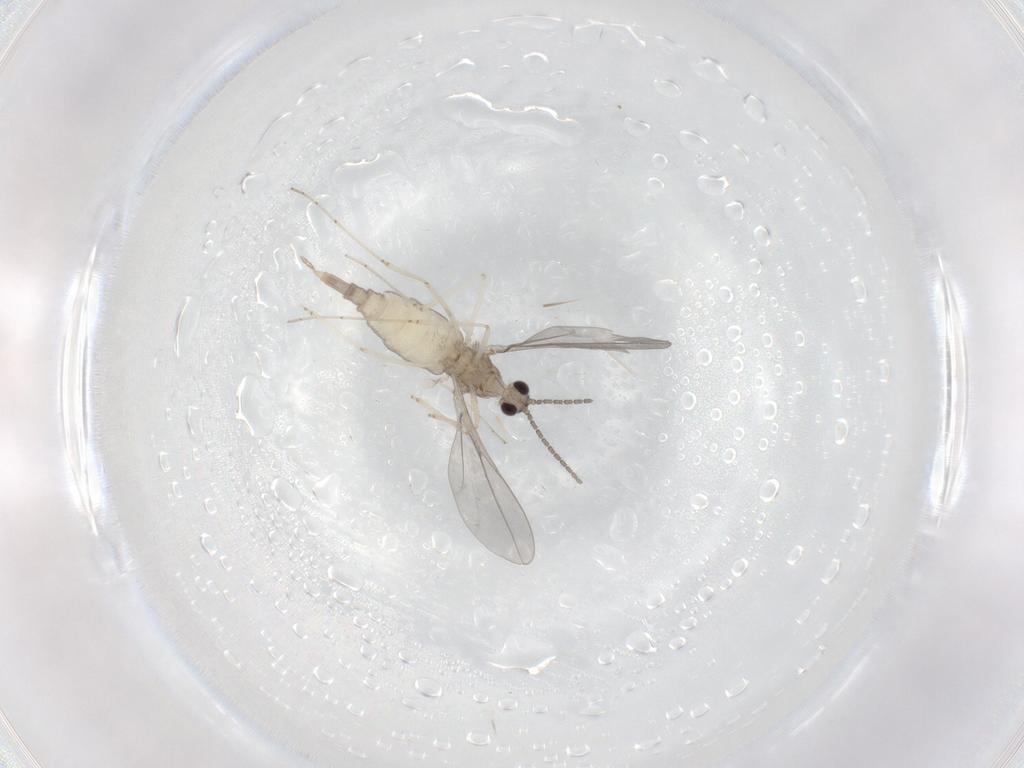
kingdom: Animalia
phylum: Arthropoda
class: Insecta
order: Diptera
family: Cecidomyiidae
